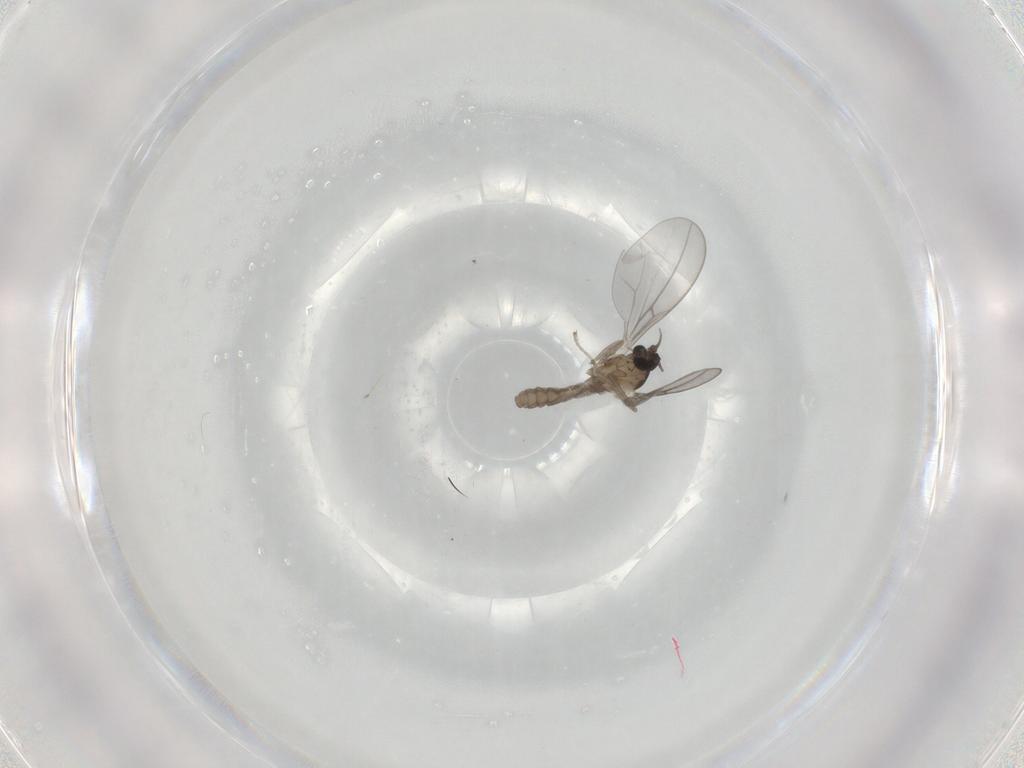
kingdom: Animalia
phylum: Arthropoda
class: Insecta
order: Diptera
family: Cecidomyiidae
